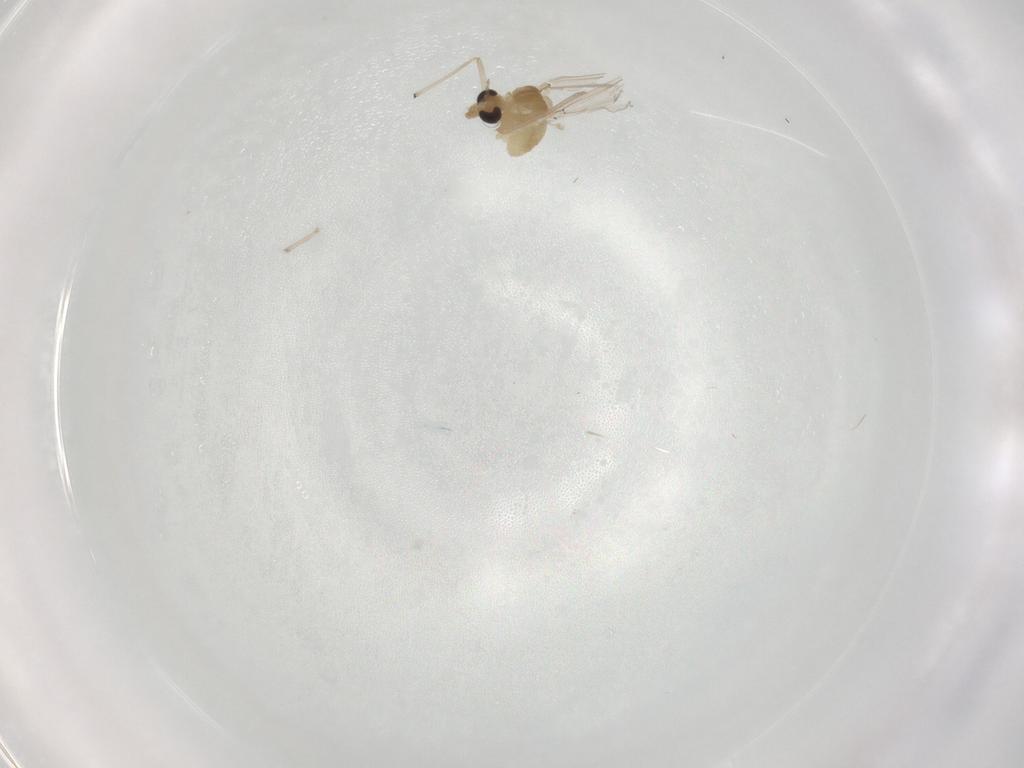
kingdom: Animalia
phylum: Arthropoda
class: Insecta
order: Diptera
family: Chironomidae
